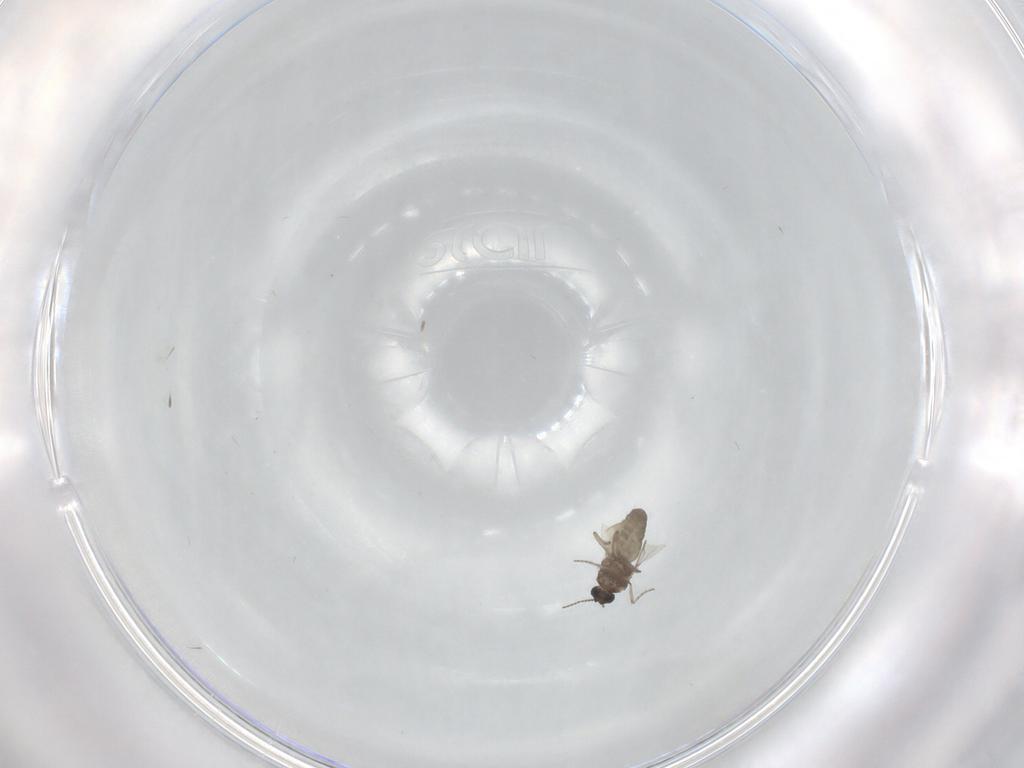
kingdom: Animalia
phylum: Arthropoda
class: Insecta
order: Diptera
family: Ceratopogonidae
